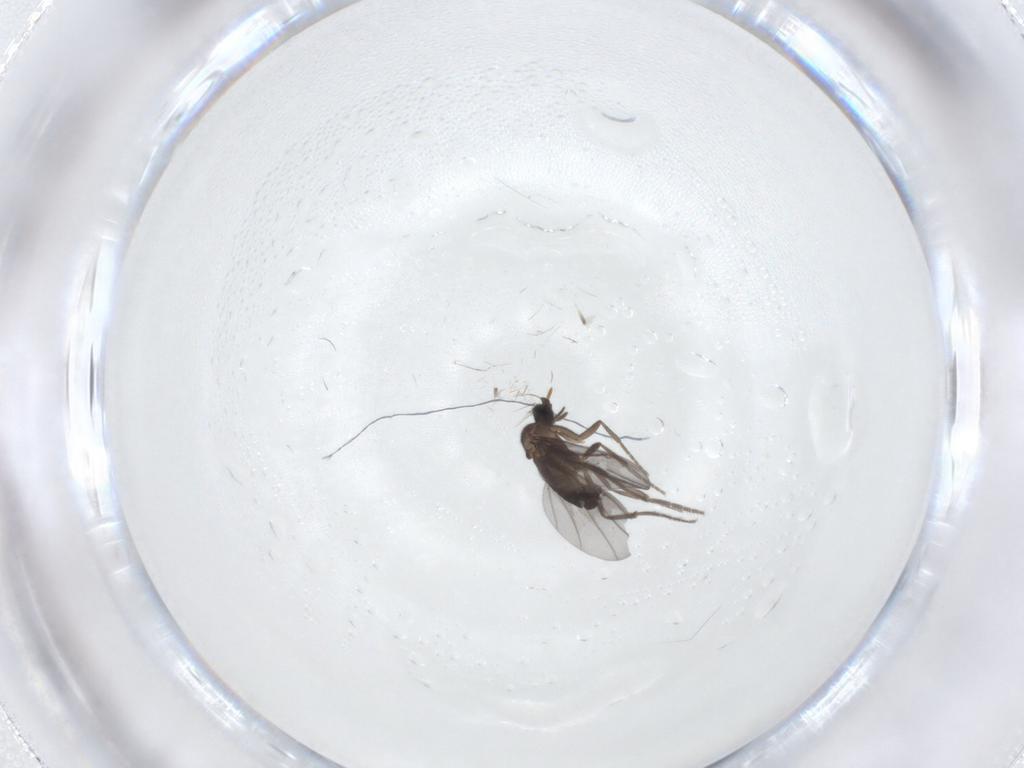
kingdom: Animalia
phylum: Arthropoda
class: Insecta
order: Diptera
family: Phoridae
